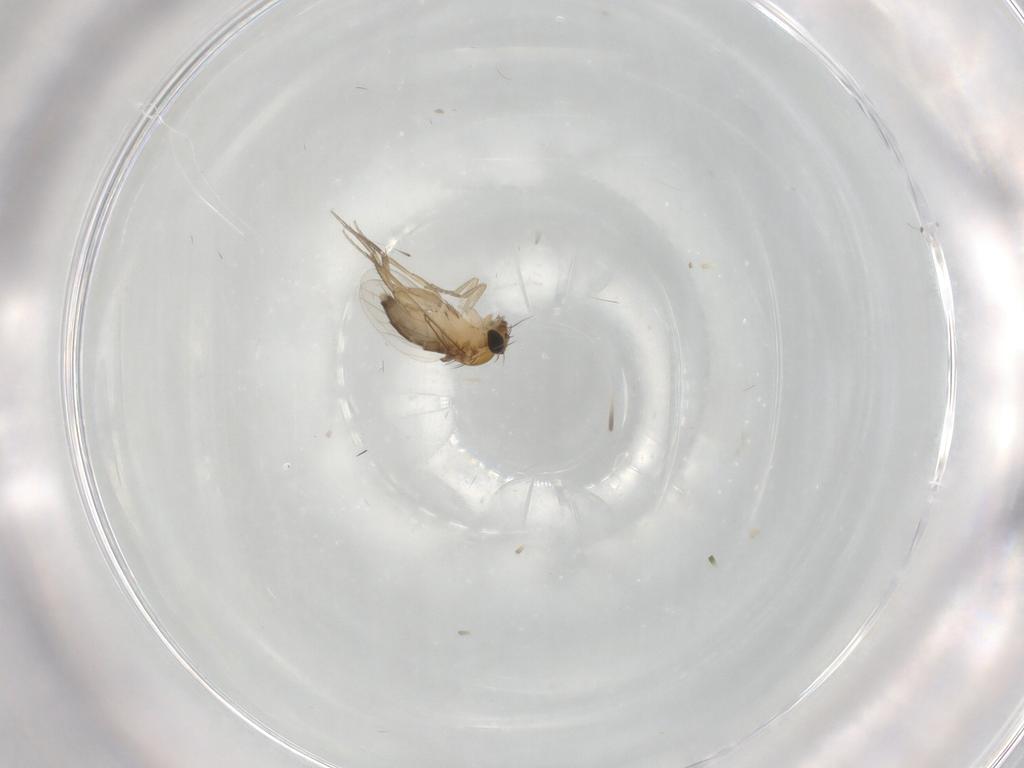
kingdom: Animalia
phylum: Arthropoda
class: Insecta
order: Diptera
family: Phoridae
